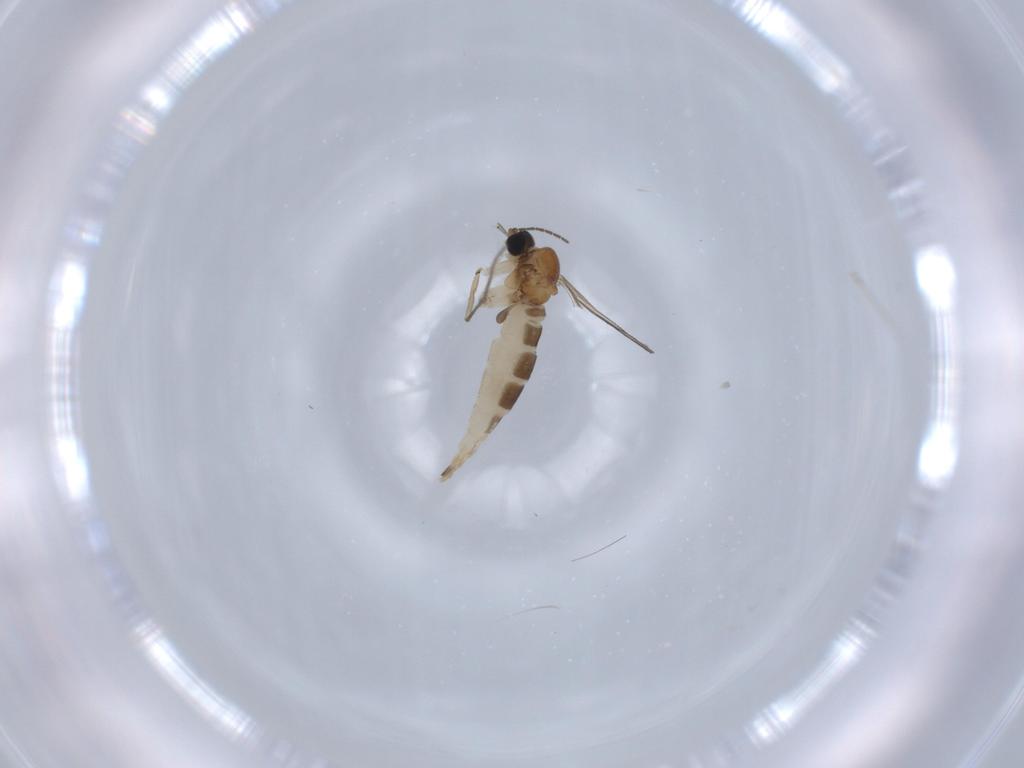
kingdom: Animalia
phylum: Arthropoda
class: Insecta
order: Diptera
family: Sciaridae
